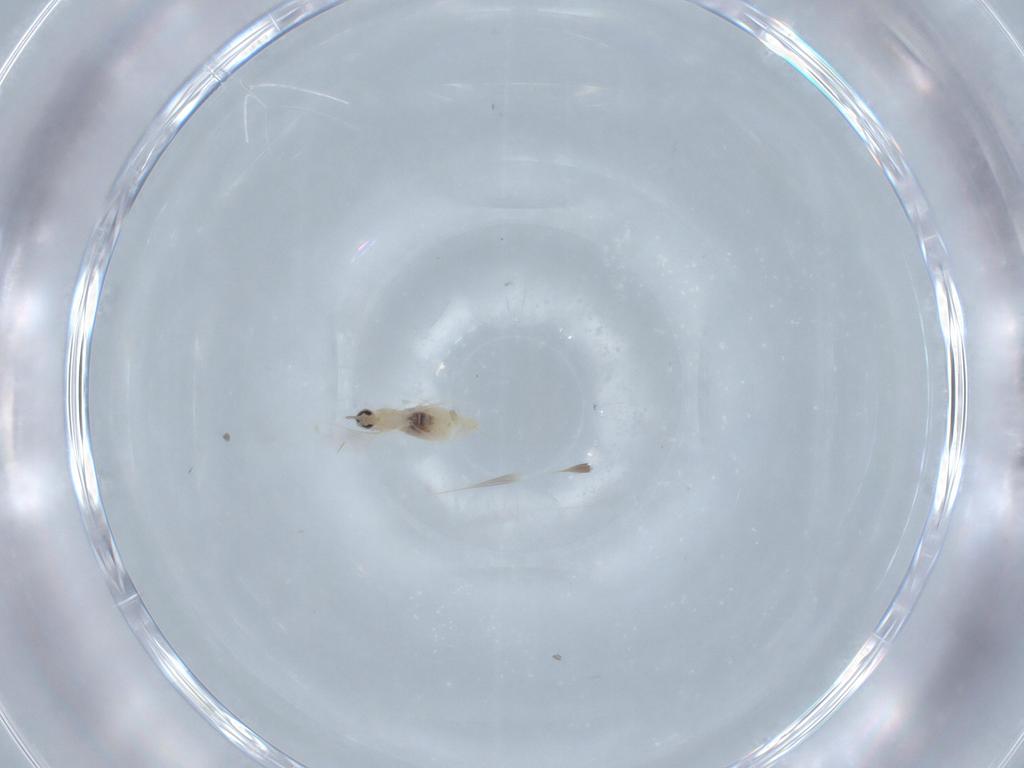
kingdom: Animalia
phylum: Arthropoda
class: Insecta
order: Diptera
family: Cecidomyiidae
